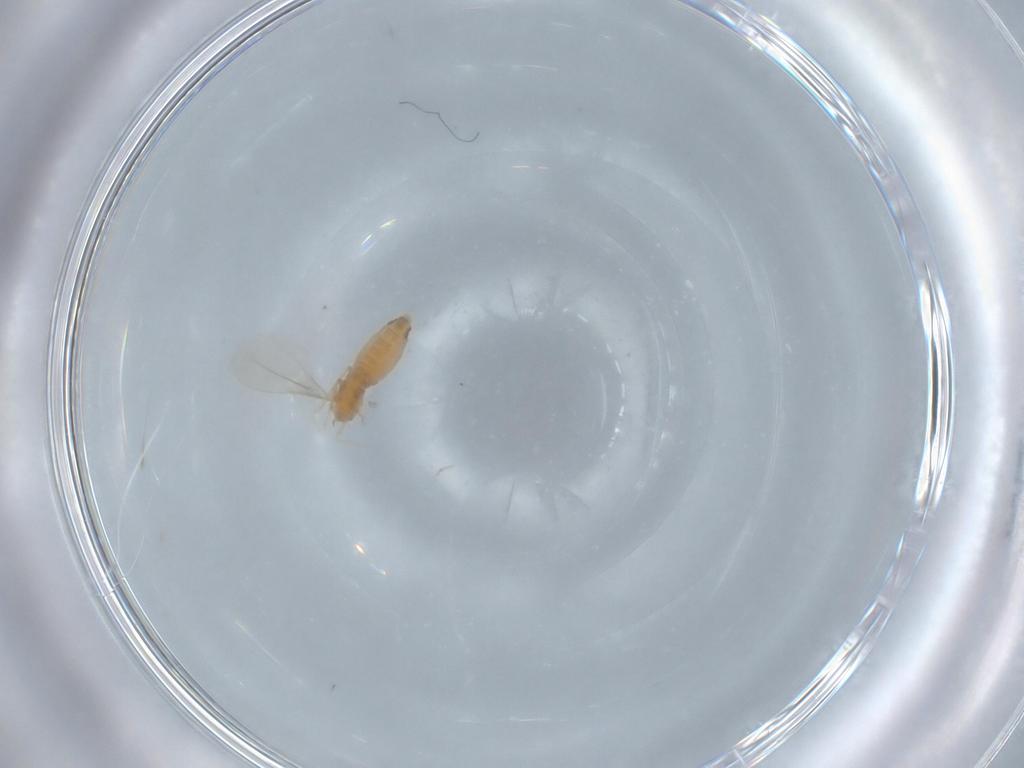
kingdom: Animalia
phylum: Arthropoda
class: Insecta
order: Diptera
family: Cecidomyiidae
